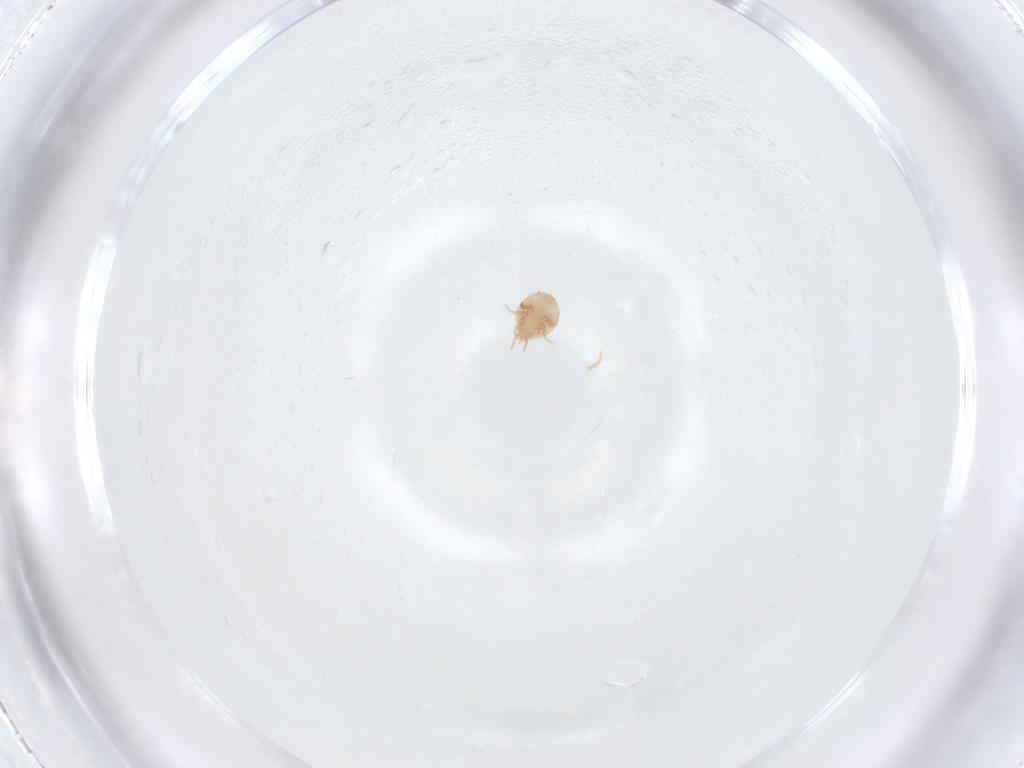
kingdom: Animalia
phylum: Arthropoda
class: Arachnida
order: Mesostigmata
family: Trematuridae
